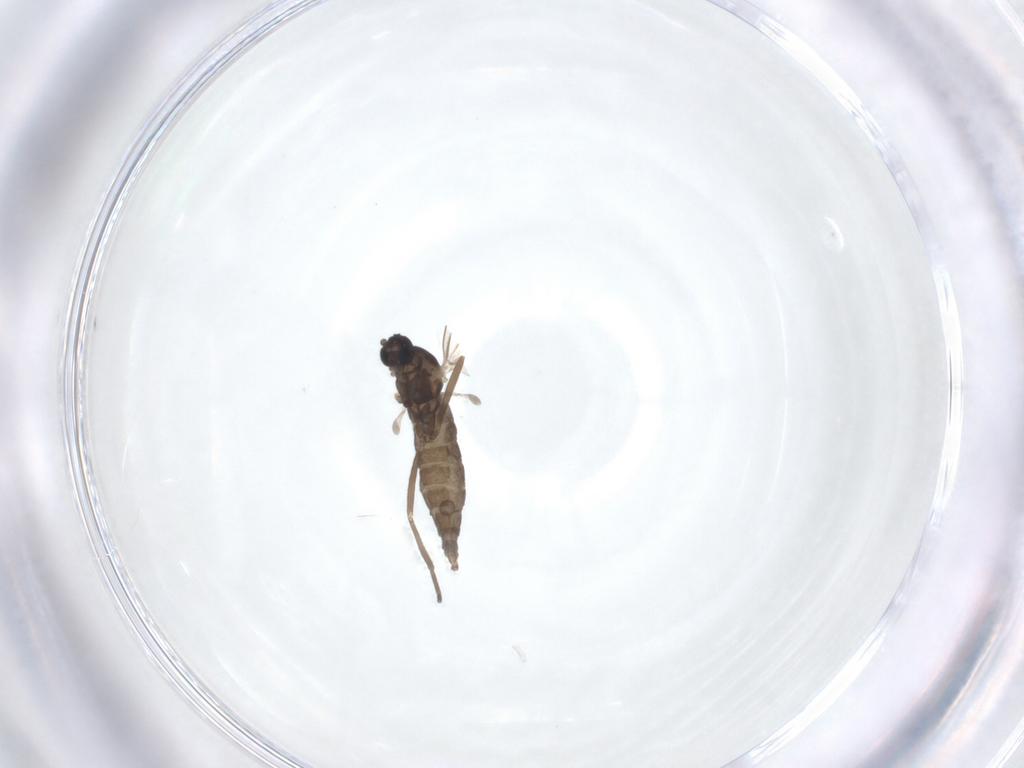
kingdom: Animalia
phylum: Arthropoda
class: Insecta
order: Diptera
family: Cecidomyiidae
